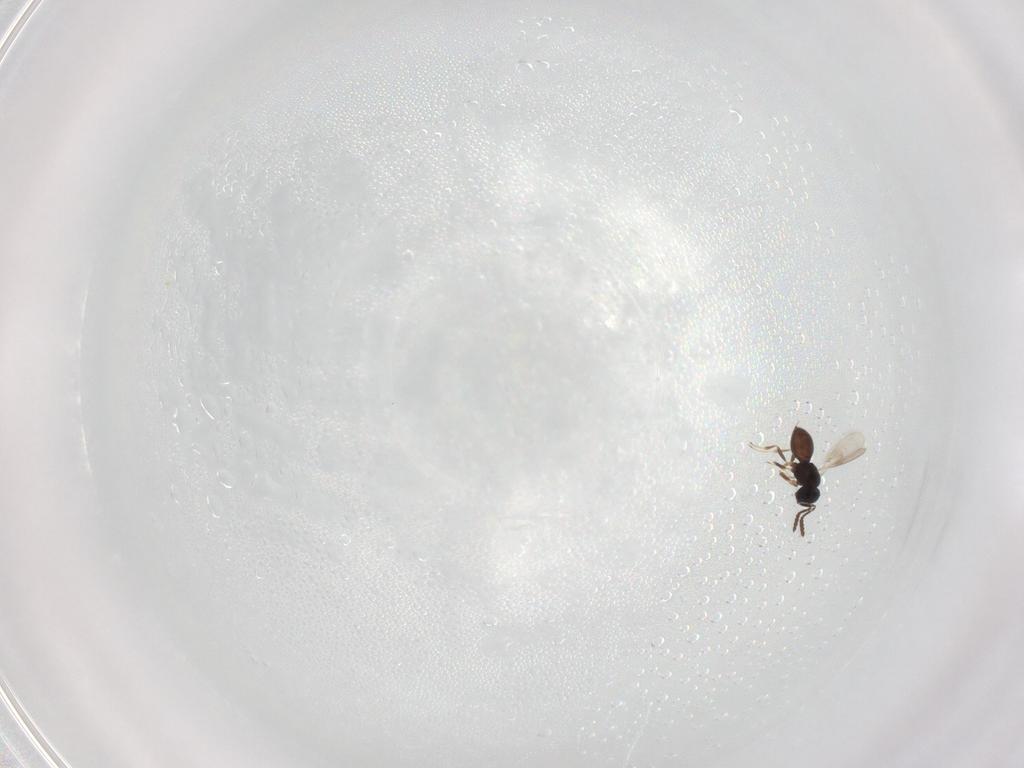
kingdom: Animalia
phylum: Arthropoda
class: Insecta
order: Hymenoptera
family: Scelionidae
